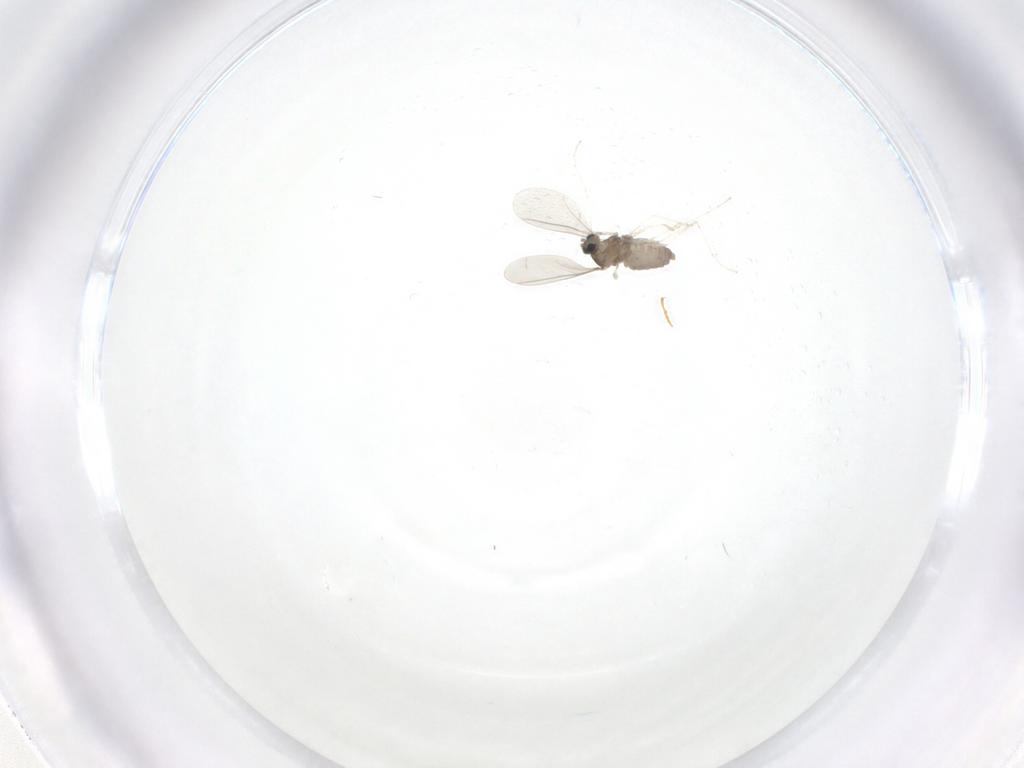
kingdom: Animalia
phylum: Arthropoda
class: Insecta
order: Diptera
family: Cecidomyiidae
